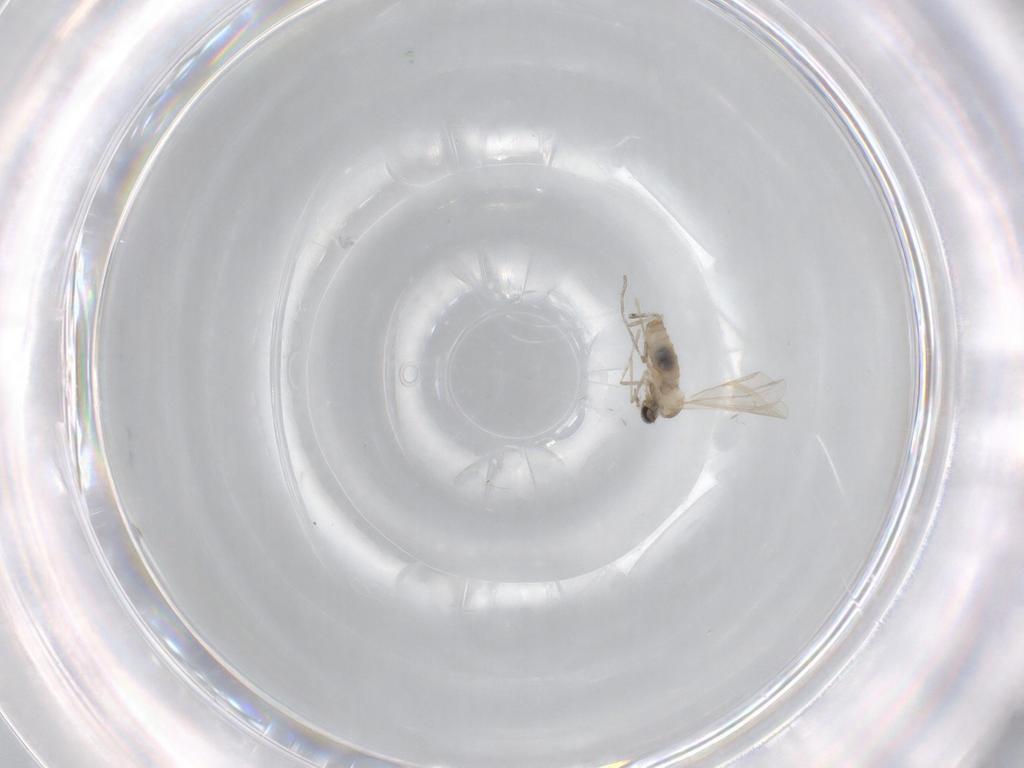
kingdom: Animalia
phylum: Arthropoda
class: Insecta
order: Diptera
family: Cecidomyiidae
